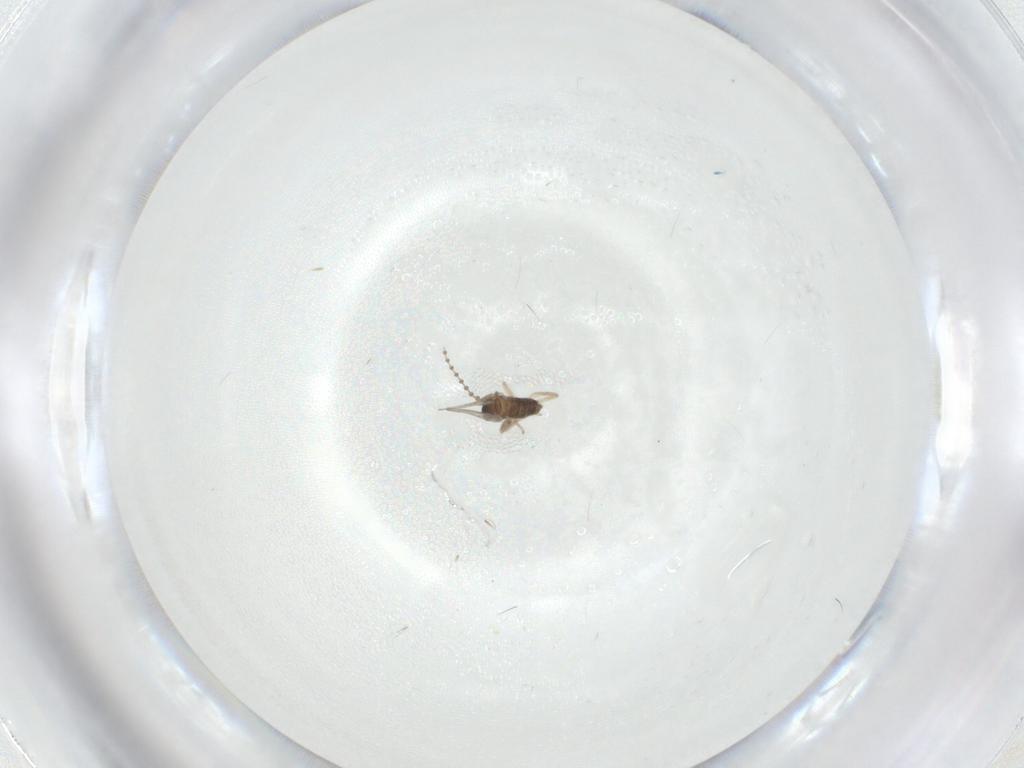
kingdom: Animalia
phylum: Arthropoda
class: Insecta
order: Diptera
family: Cecidomyiidae
